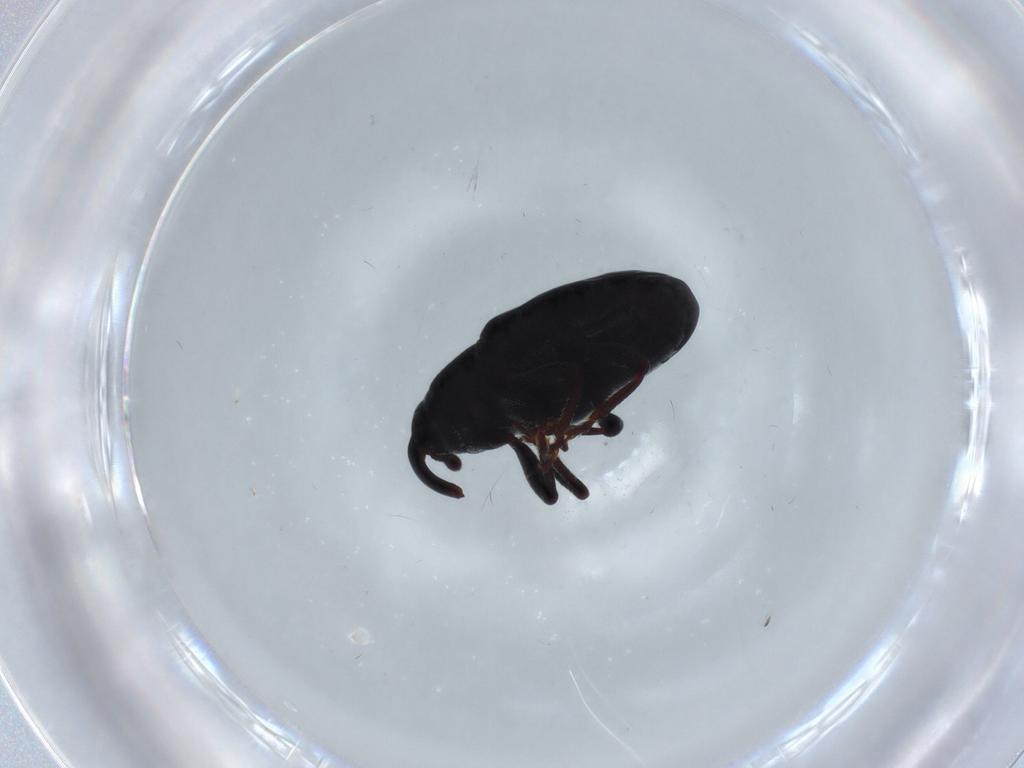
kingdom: Animalia
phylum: Arthropoda
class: Insecta
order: Coleoptera
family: Curculionidae
